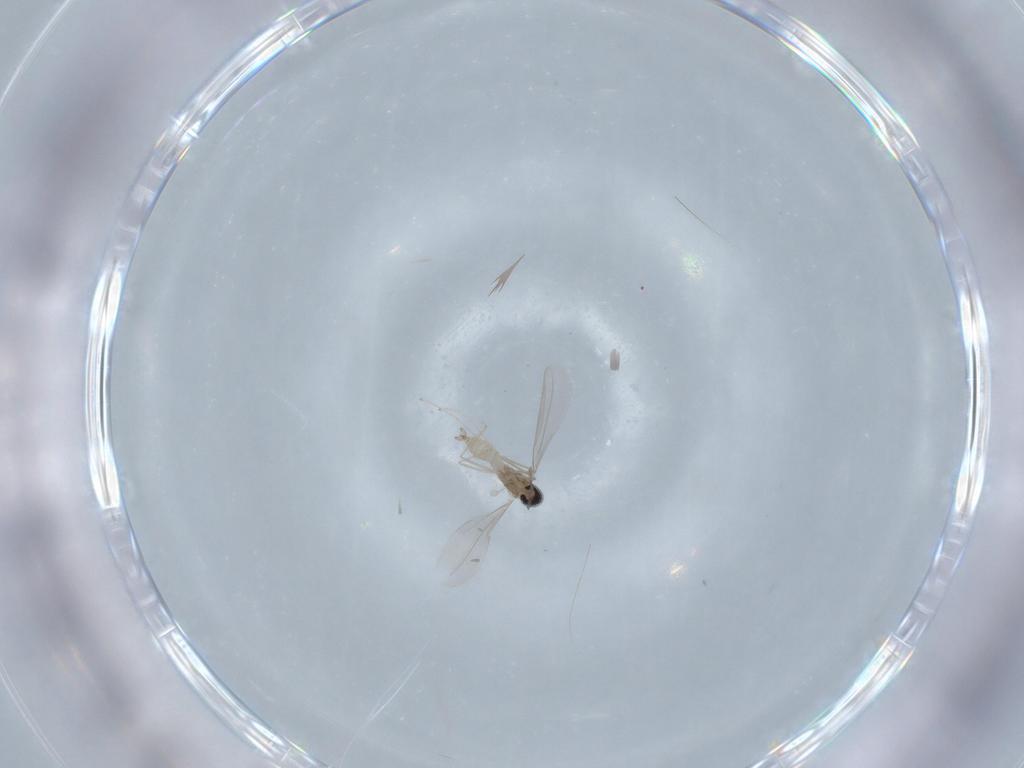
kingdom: Animalia
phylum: Arthropoda
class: Insecta
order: Diptera
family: Cecidomyiidae
